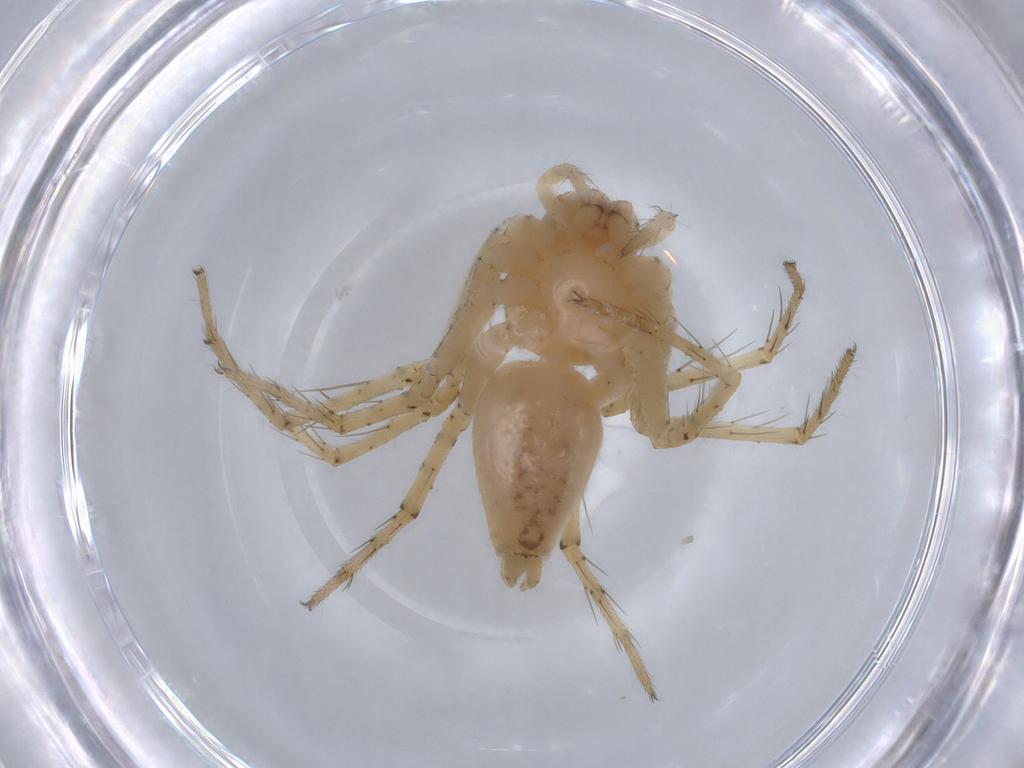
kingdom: Animalia
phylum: Arthropoda
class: Arachnida
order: Araneae
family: Oxyopidae
